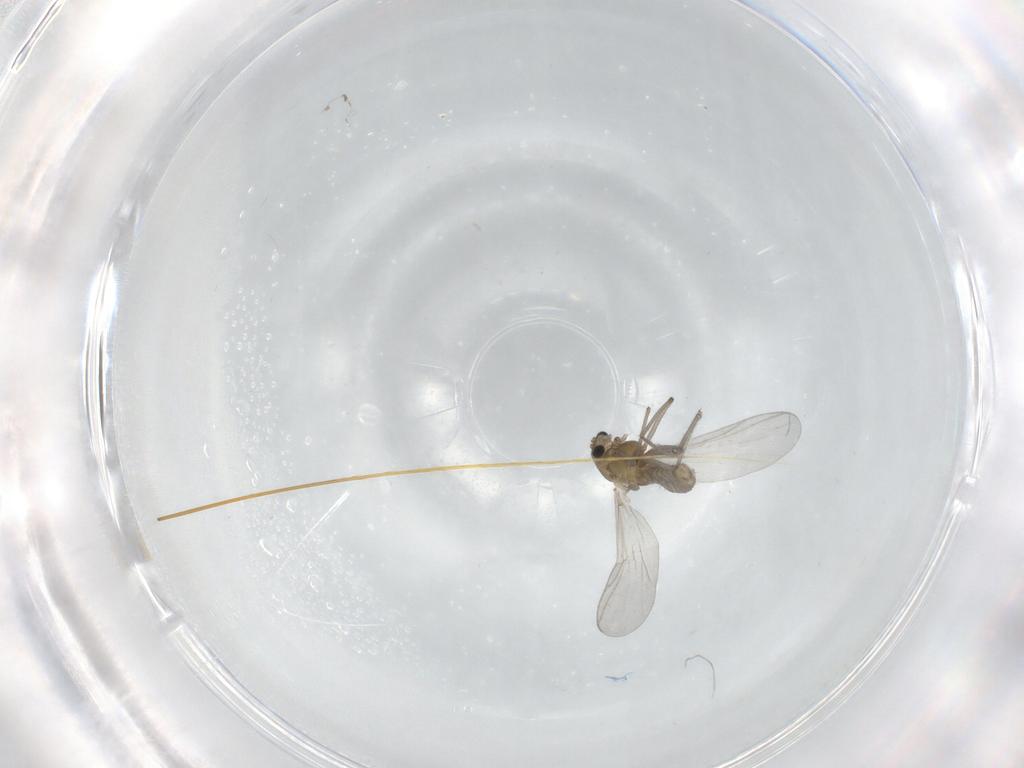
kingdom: Animalia
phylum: Arthropoda
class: Insecta
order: Diptera
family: Chironomidae
